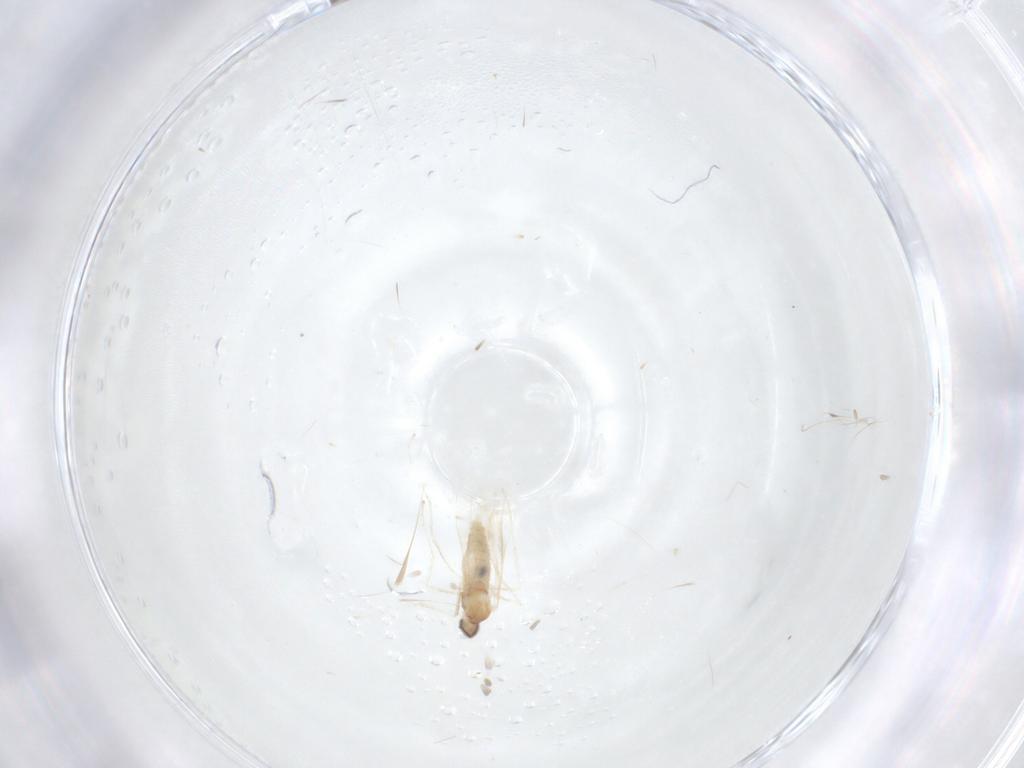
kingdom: Animalia
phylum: Arthropoda
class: Insecta
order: Diptera
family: Cecidomyiidae
